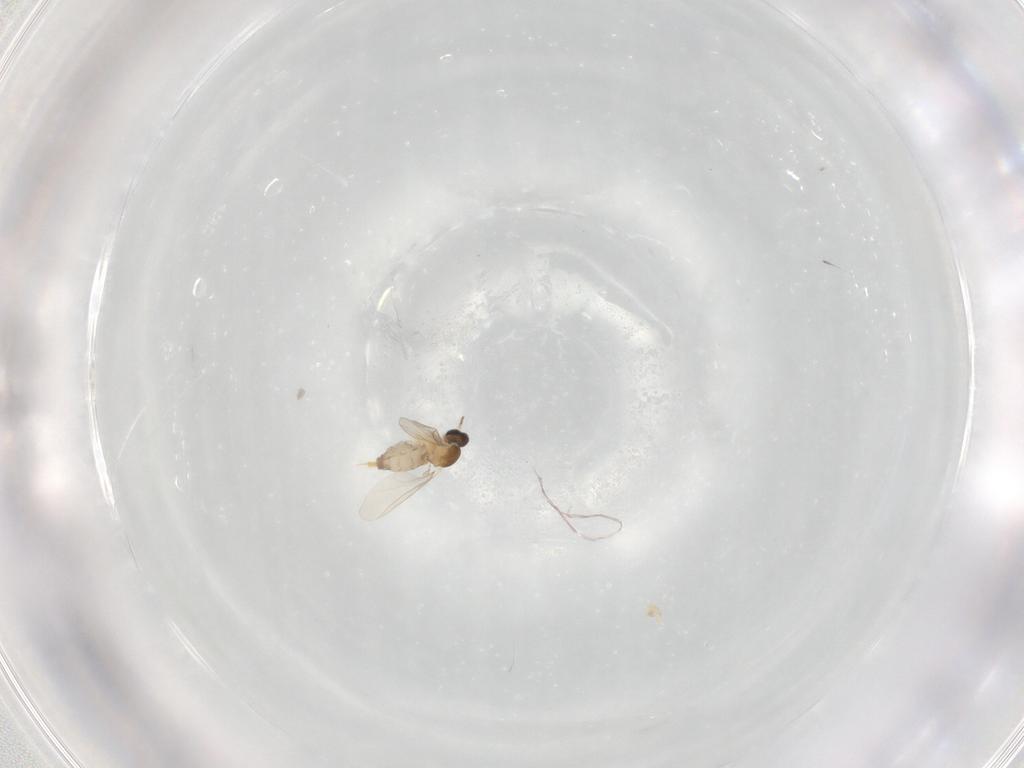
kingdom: Animalia
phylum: Arthropoda
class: Insecta
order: Diptera
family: Cecidomyiidae
